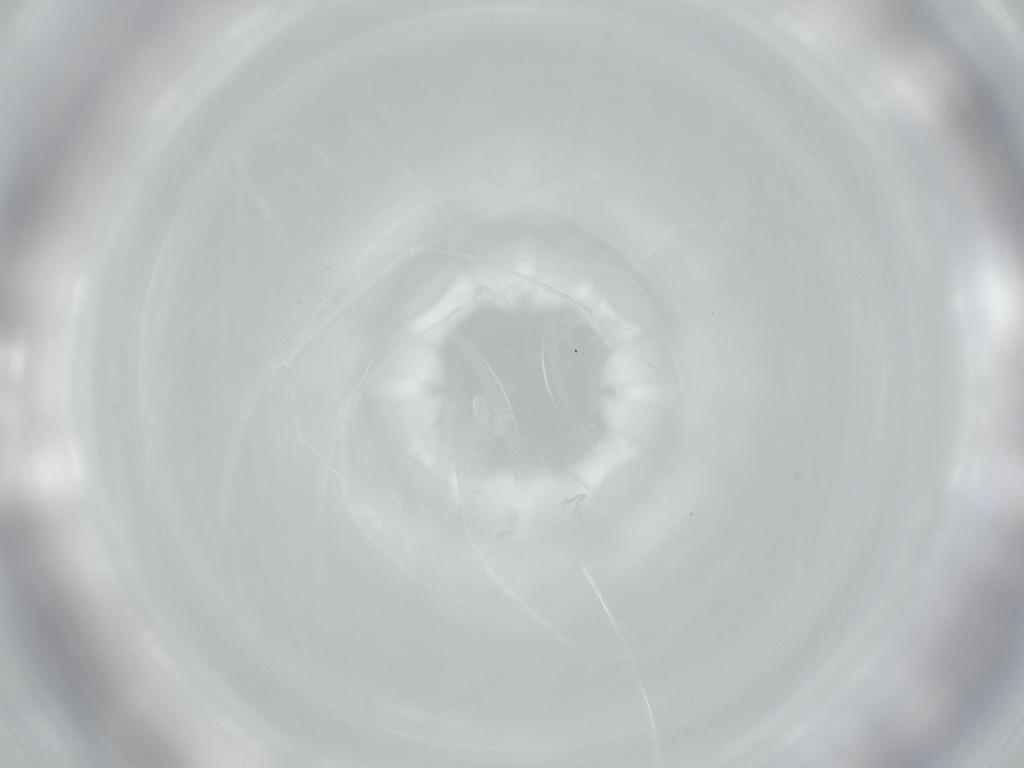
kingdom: Animalia
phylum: Arthropoda
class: Insecta
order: Diptera
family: Cecidomyiidae
